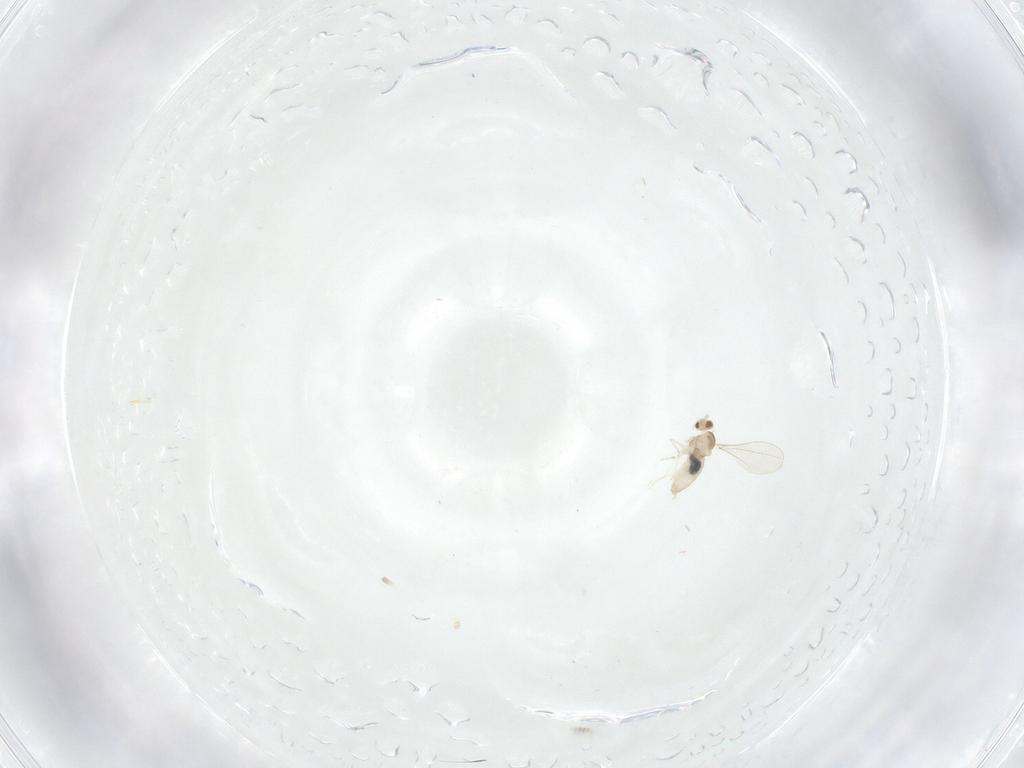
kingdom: Animalia
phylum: Arthropoda
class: Insecta
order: Diptera
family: Cecidomyiidae
